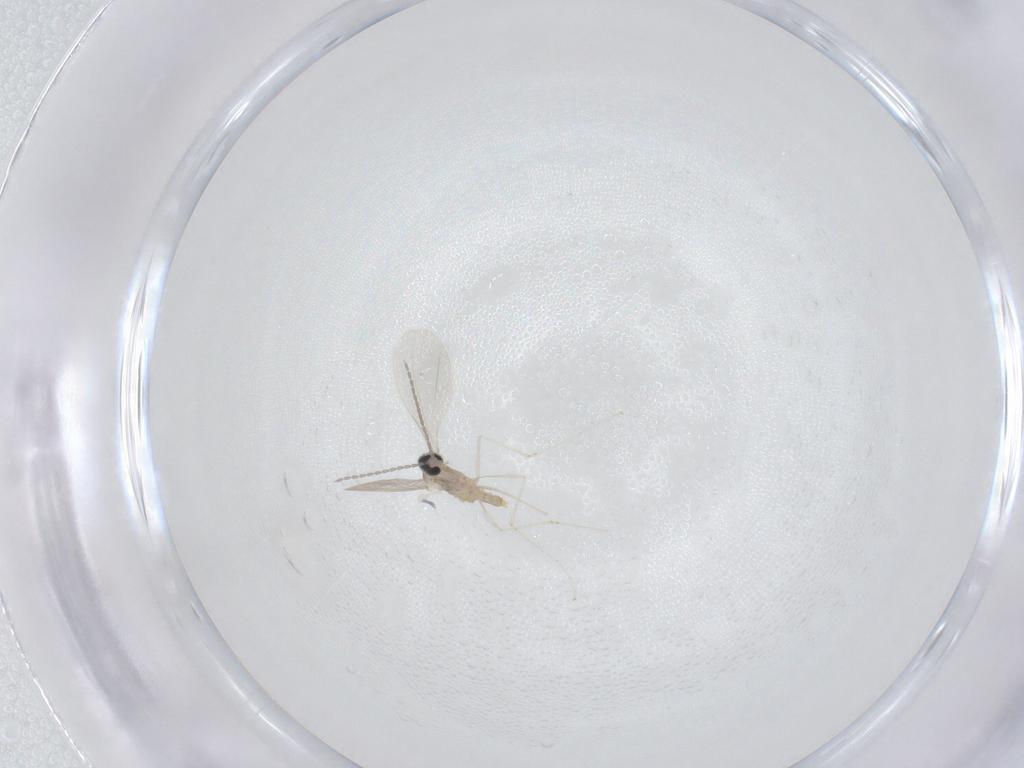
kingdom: Animalia
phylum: Arthropoda
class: Insecta
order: Diptera
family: Cecidomyiidae
